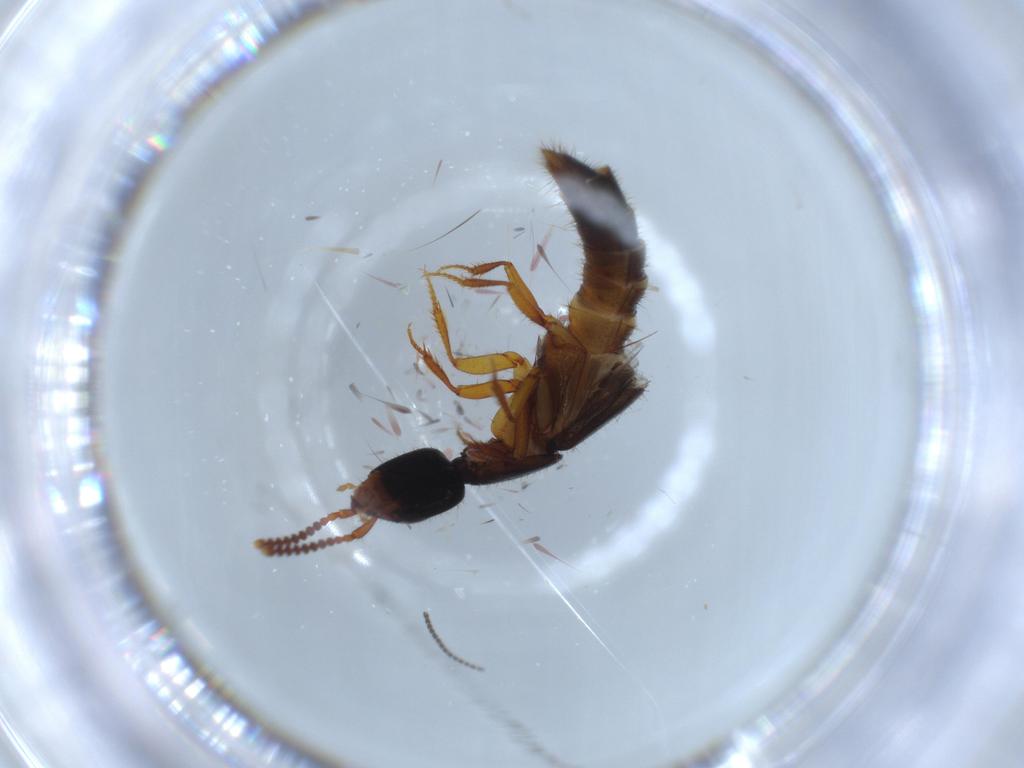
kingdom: Animalia
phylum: Arthropoda
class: Insecta
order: Coleoptera
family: Staphylinidae
